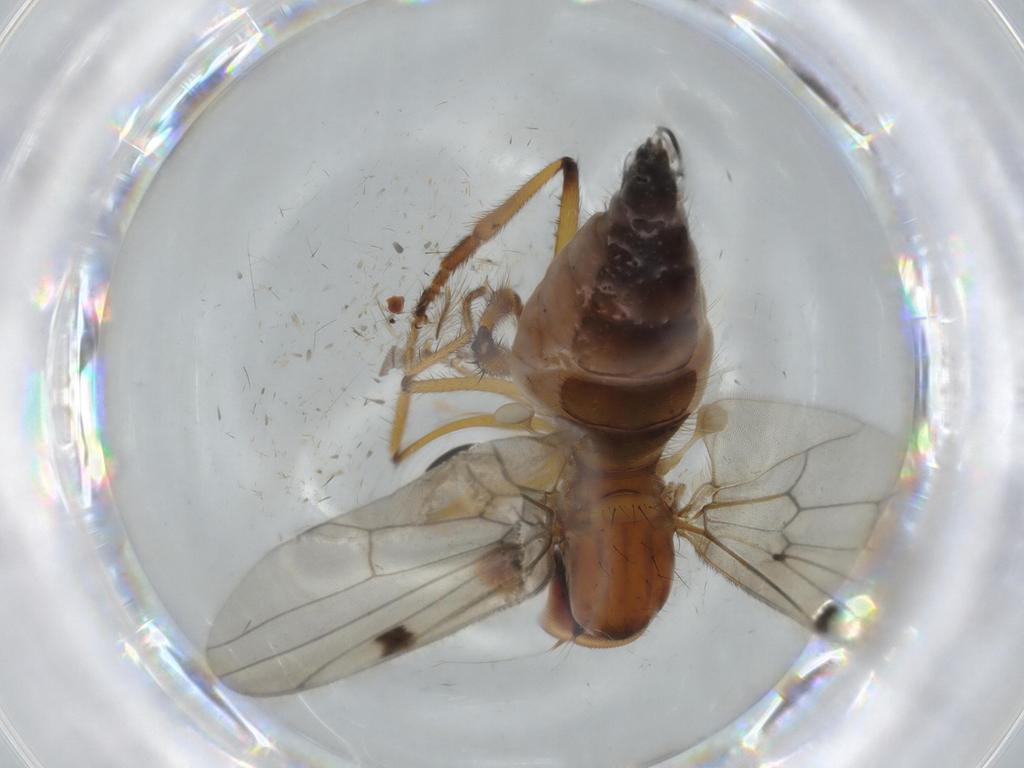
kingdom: Animalia
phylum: Arthropoda
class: Insecta
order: Diptera
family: Hybotidae
